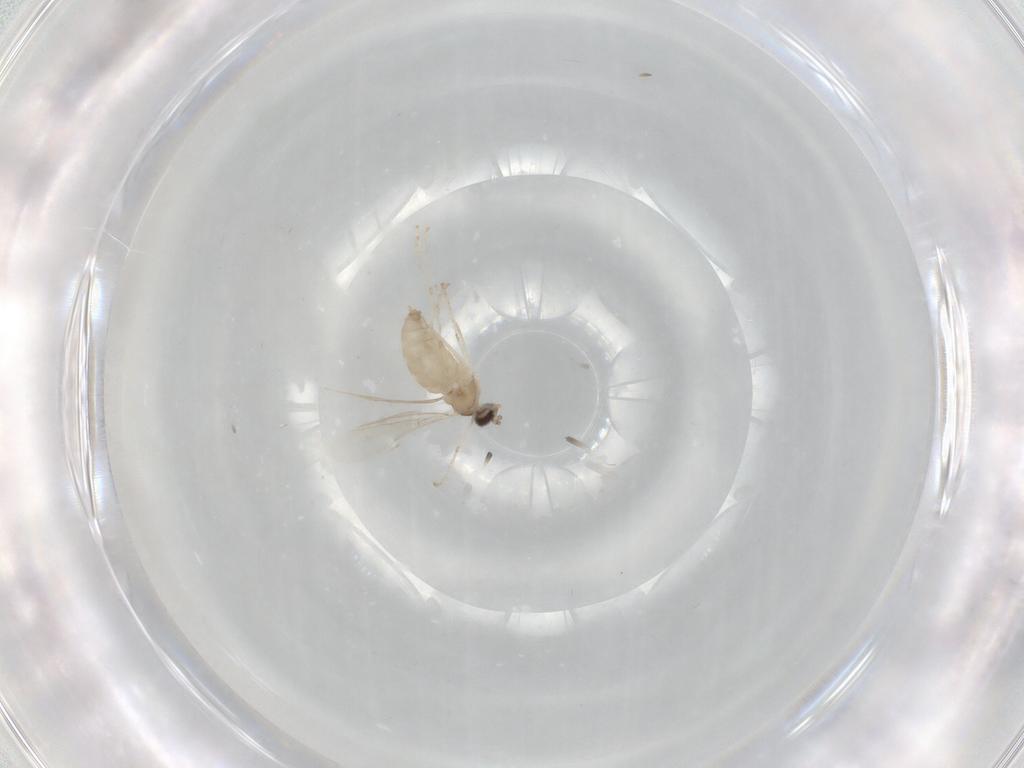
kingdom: Animalia
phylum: Arthropoda
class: Insecta
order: Diptera
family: Cecidomyiidae
